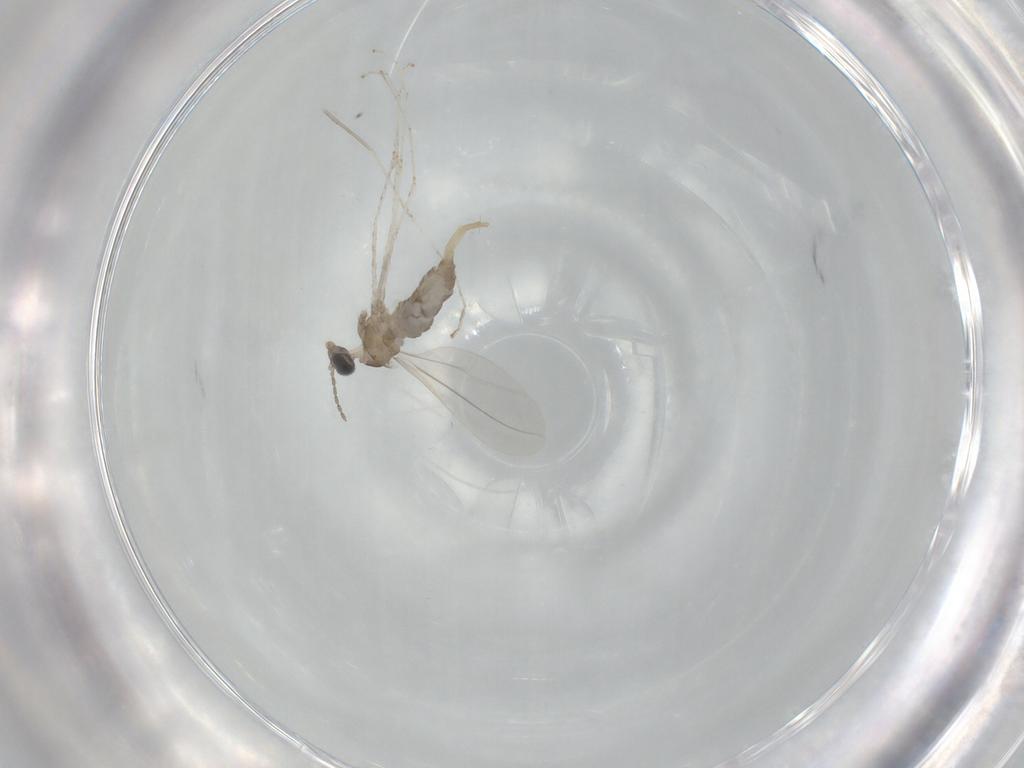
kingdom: Animalia
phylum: Arthropoda
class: Insecta
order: Diptera
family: Cecidomyiidae
